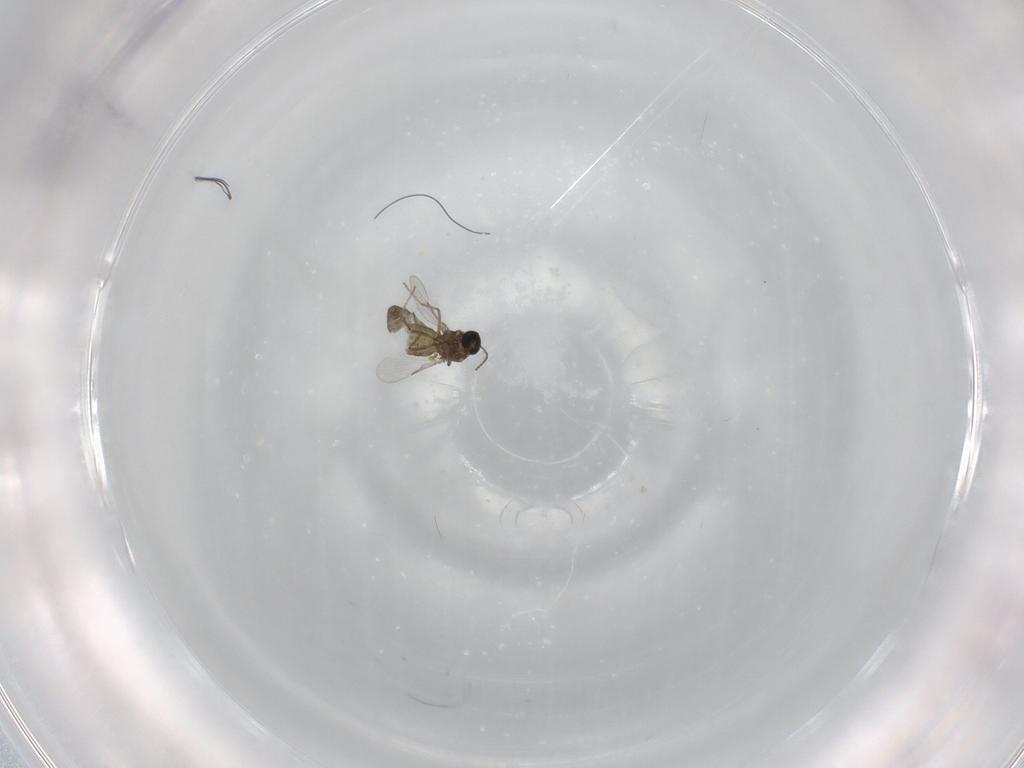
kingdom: Animalia
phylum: Arthropoda
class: Insecta
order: Diptera
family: Ceratopogonidae
